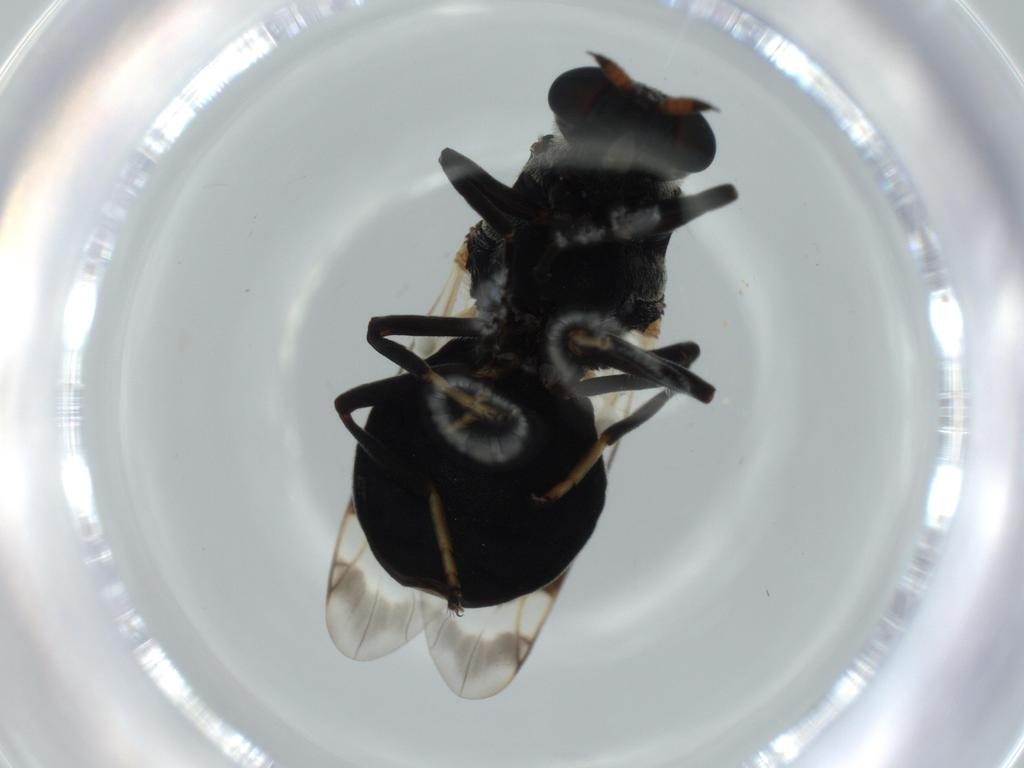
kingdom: Animalia
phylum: Arthropoda
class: Insecta
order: Diptera
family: Stratiomyidae
